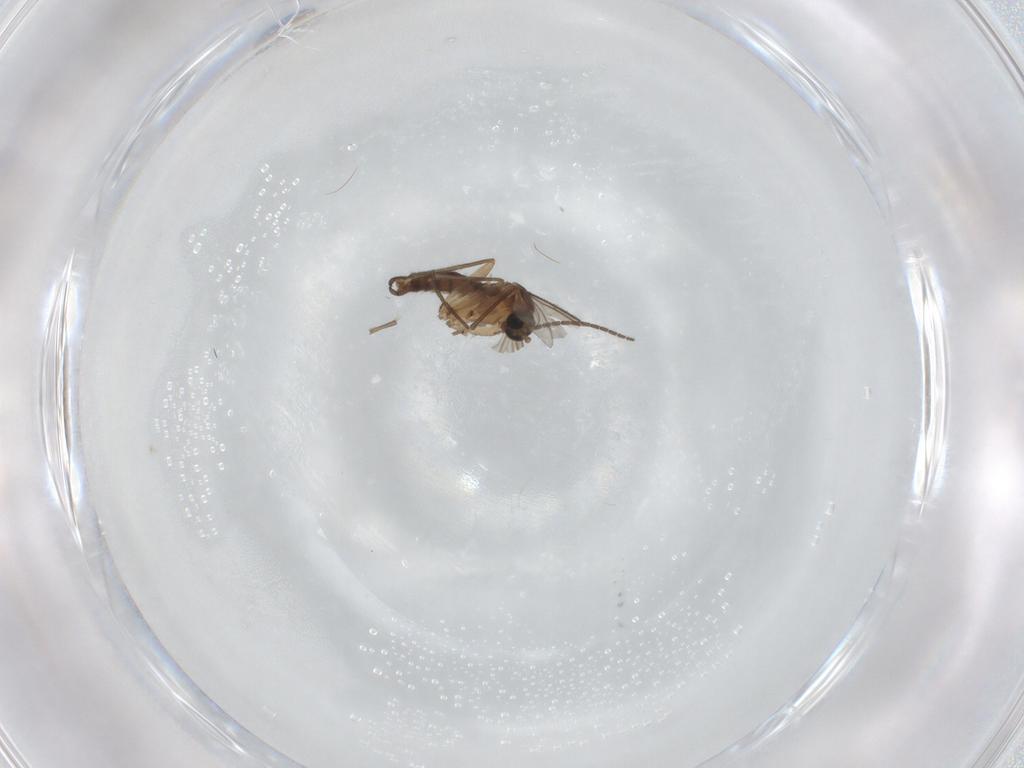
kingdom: Animalia
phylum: Arthropoda
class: Insecta
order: Diptera
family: Sciaridae
